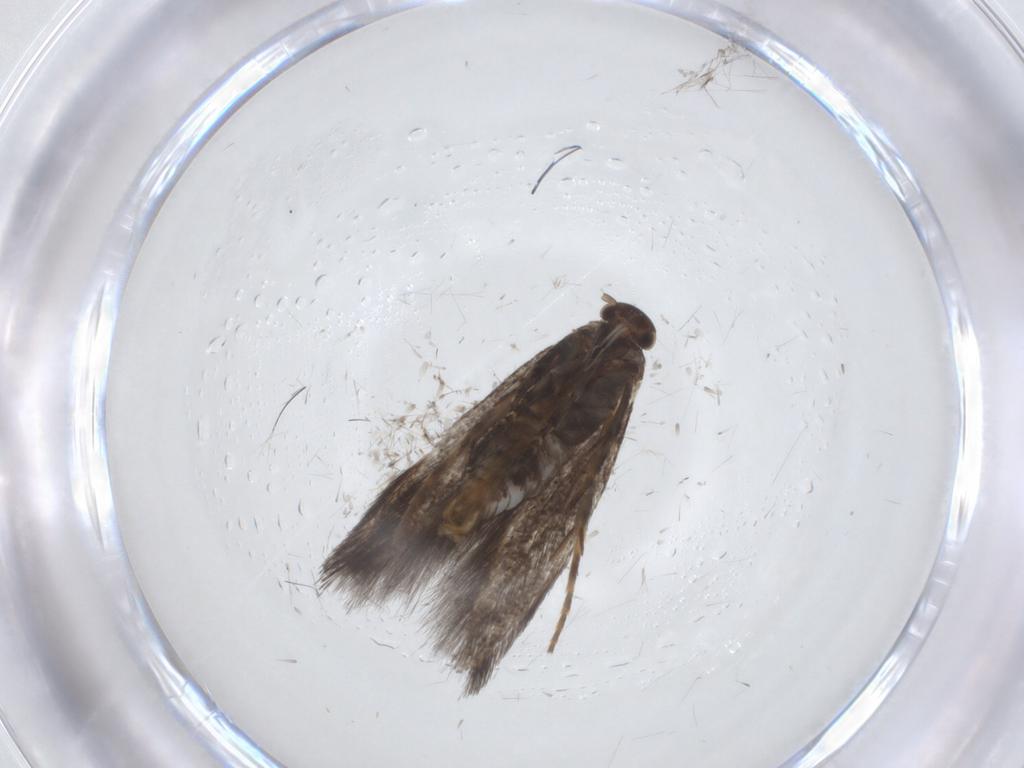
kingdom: Animalia
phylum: Arthropoda
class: Insecta
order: Lepidoptera
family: Elachistidae
